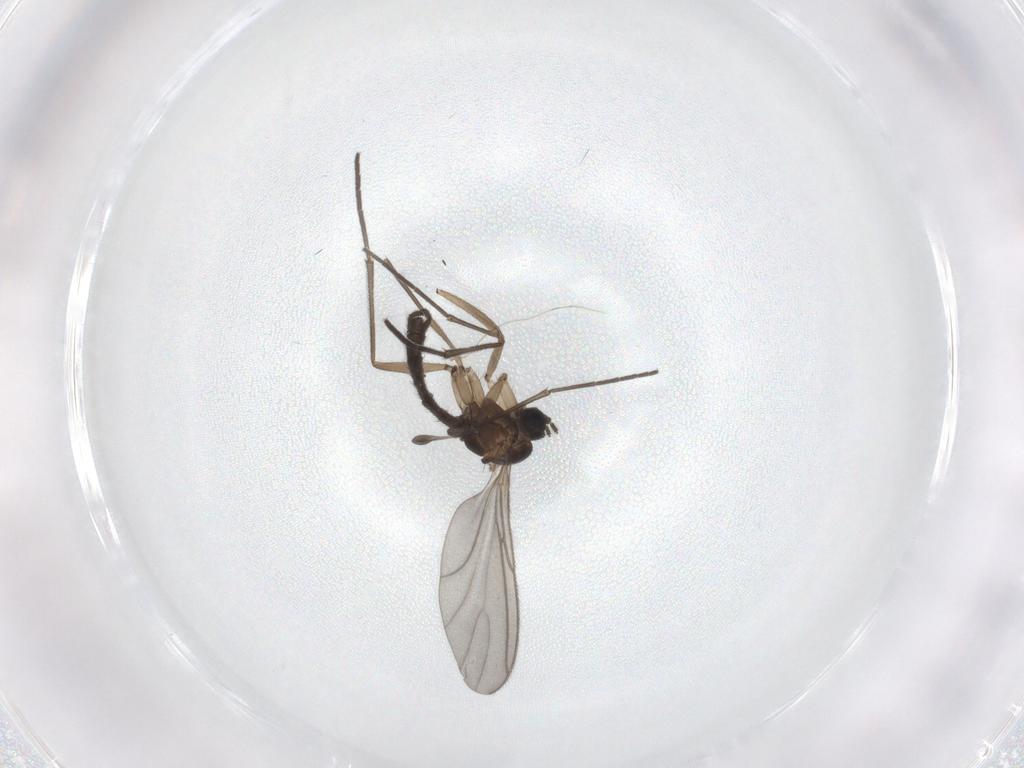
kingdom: Animalia
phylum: Arthropoda
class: Insecta
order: Diptera
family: Sciaridae
